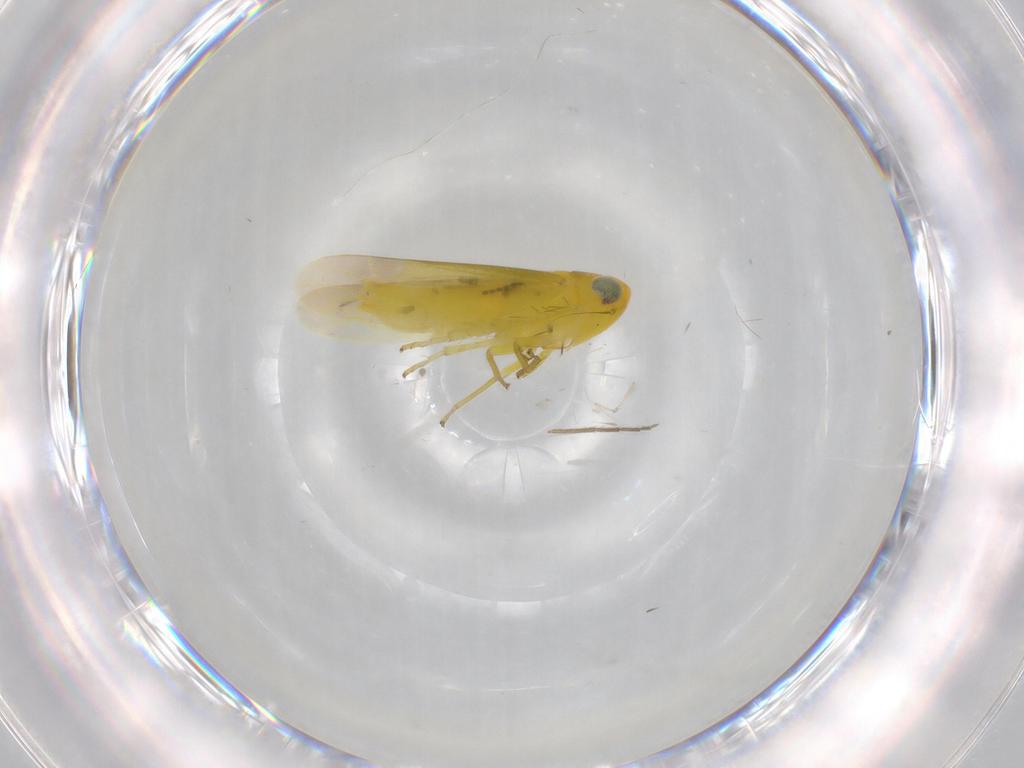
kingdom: Animalia
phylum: Arthropoda
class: Insecta
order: Hemiptera
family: Cicadellidae
